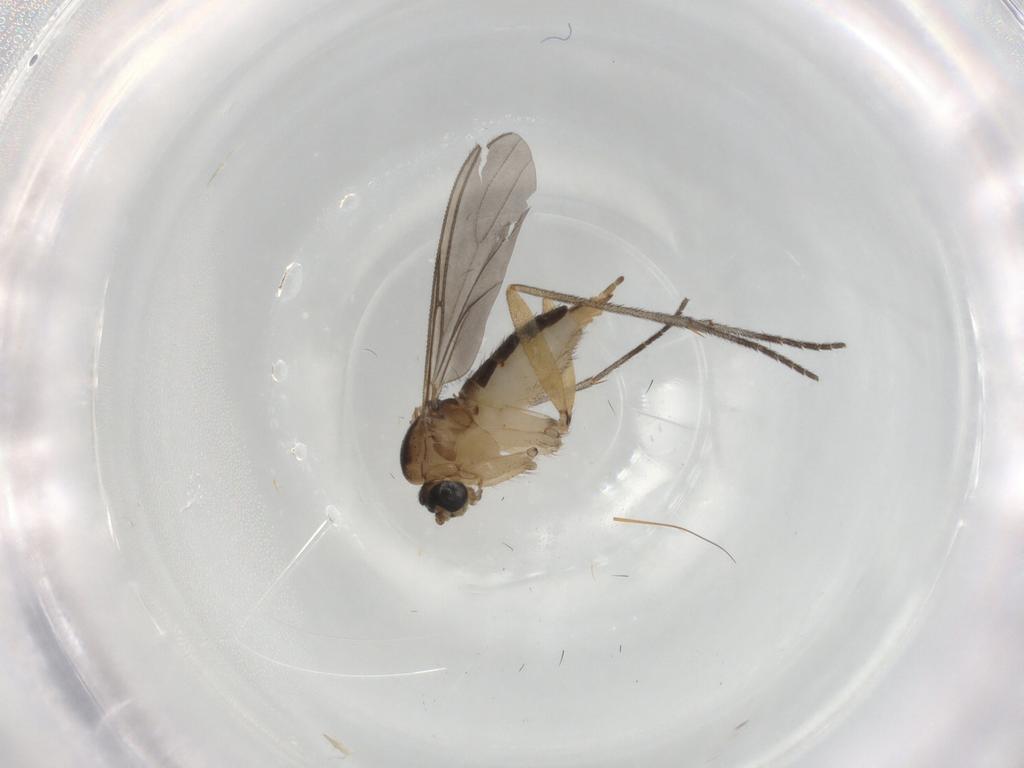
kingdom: Animalia
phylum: Arthropoda
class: Insecta
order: Diptera
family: Sciaridae
